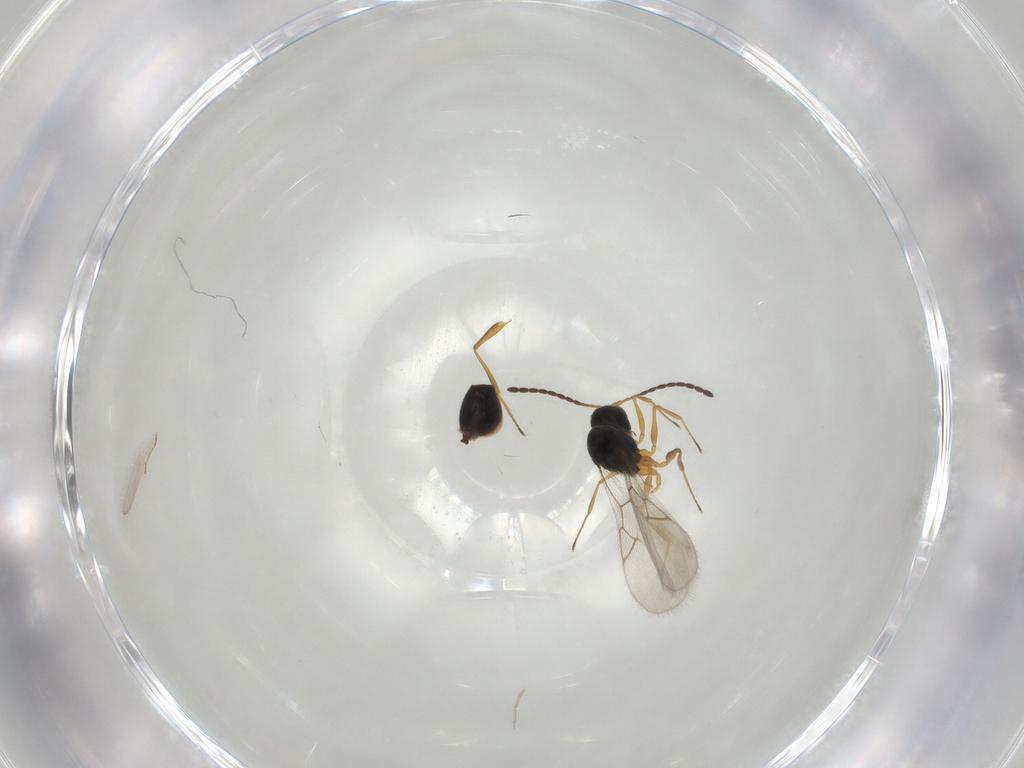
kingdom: Animalia
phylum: Arthropoda
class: Insecta
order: Hymenoptera
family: Figitidae
